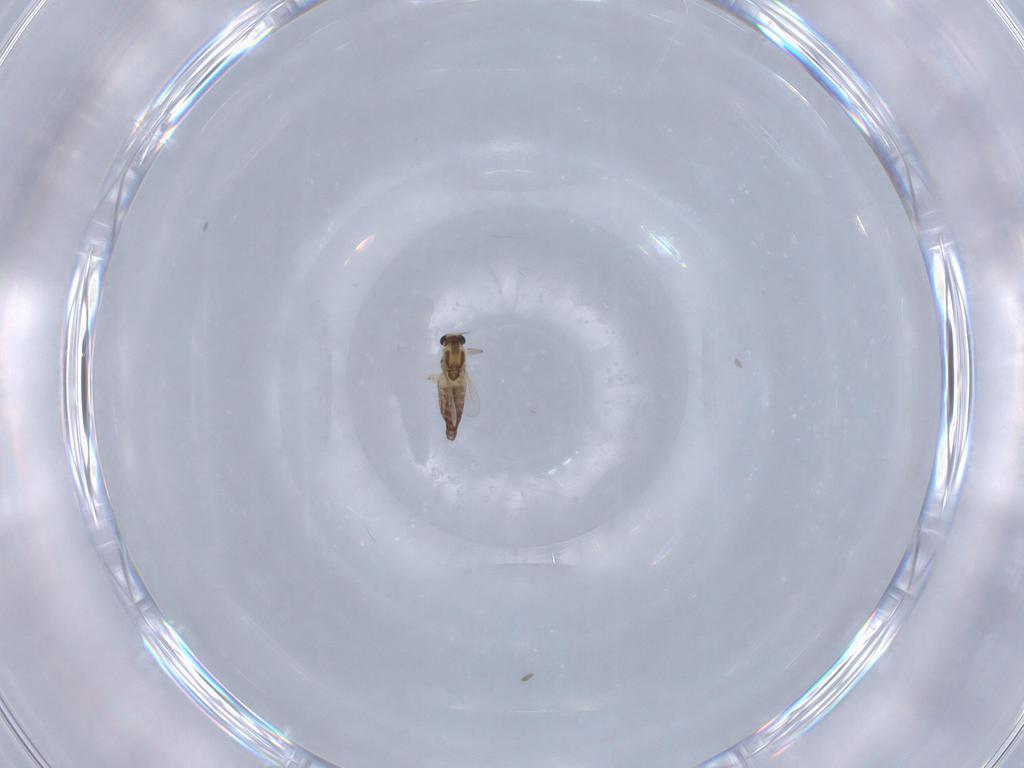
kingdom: Animalia
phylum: Arthropoda
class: Insecta
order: Diptera
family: Chironomidae
